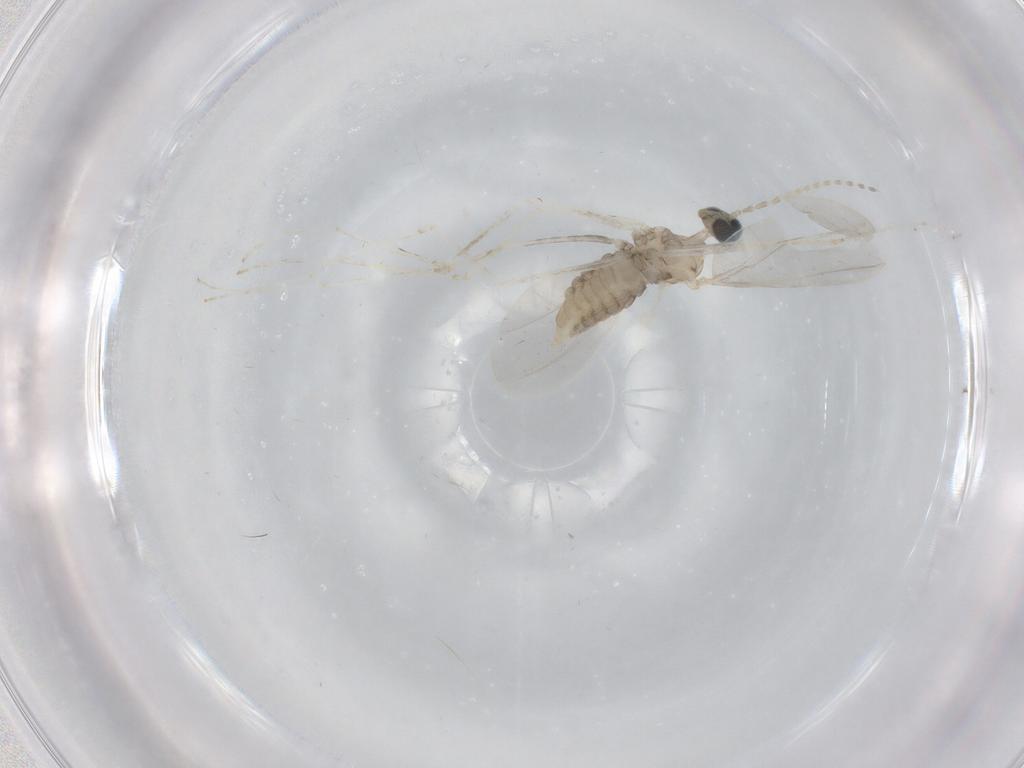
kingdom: Animalia
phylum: Arthropoda
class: Insecta
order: Diptera
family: Cecidomyiidae
